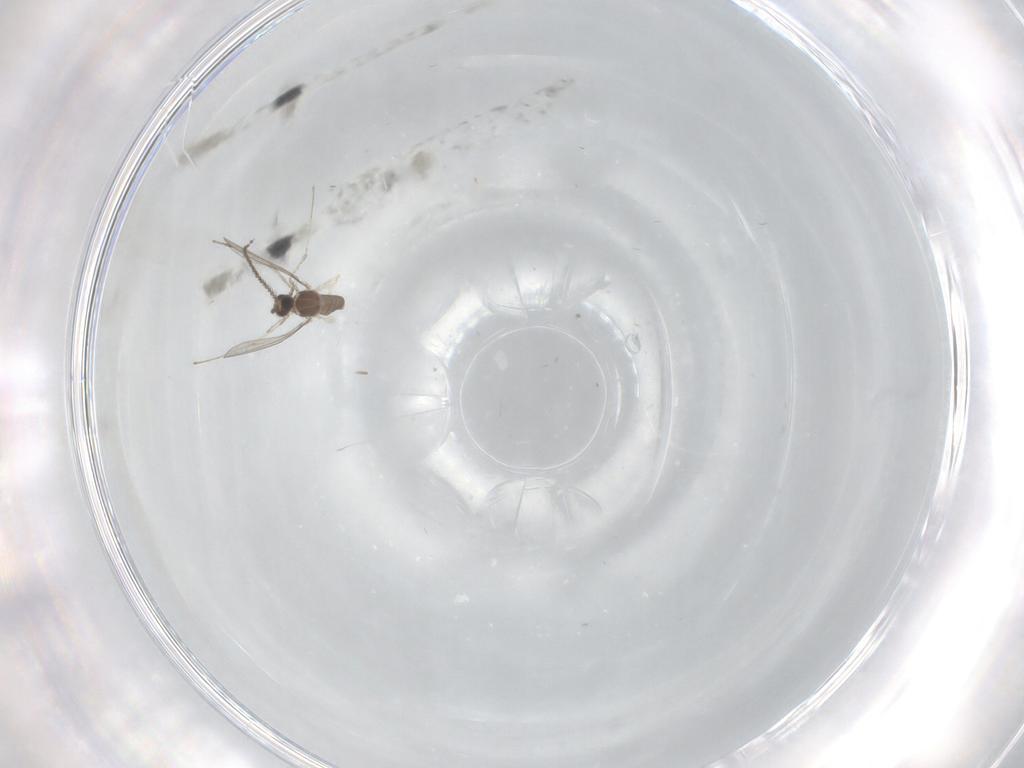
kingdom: Animalia
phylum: Arthropoda
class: Insecta
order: Diptera
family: Cecidomyiidae
